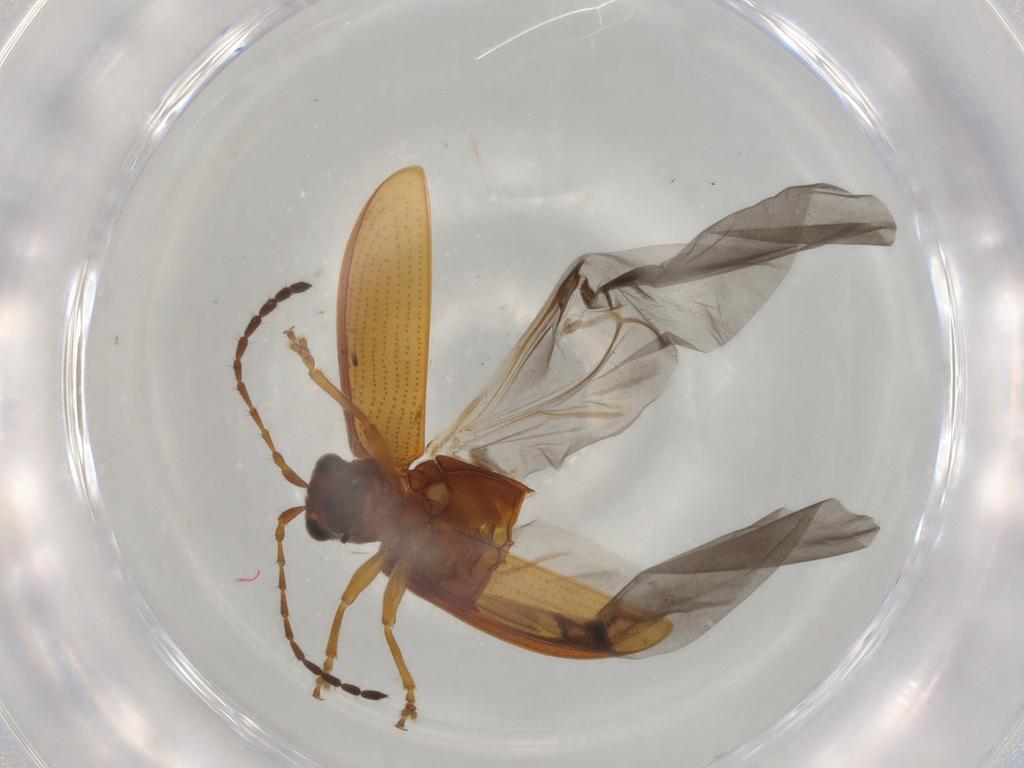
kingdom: Animalia
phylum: Arthropoda
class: Insecta
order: Coleoptera
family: Chrysomelidae
